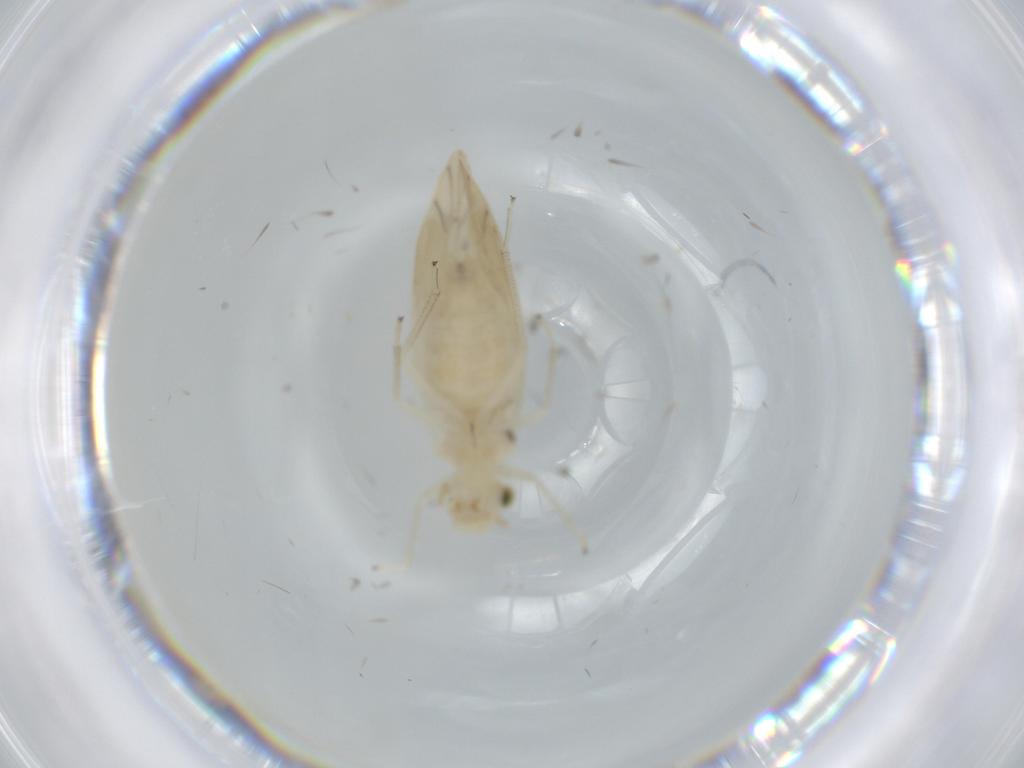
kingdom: Animalia
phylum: Arthropoda
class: Insecta
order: Psocodea
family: Caeciliusidae
